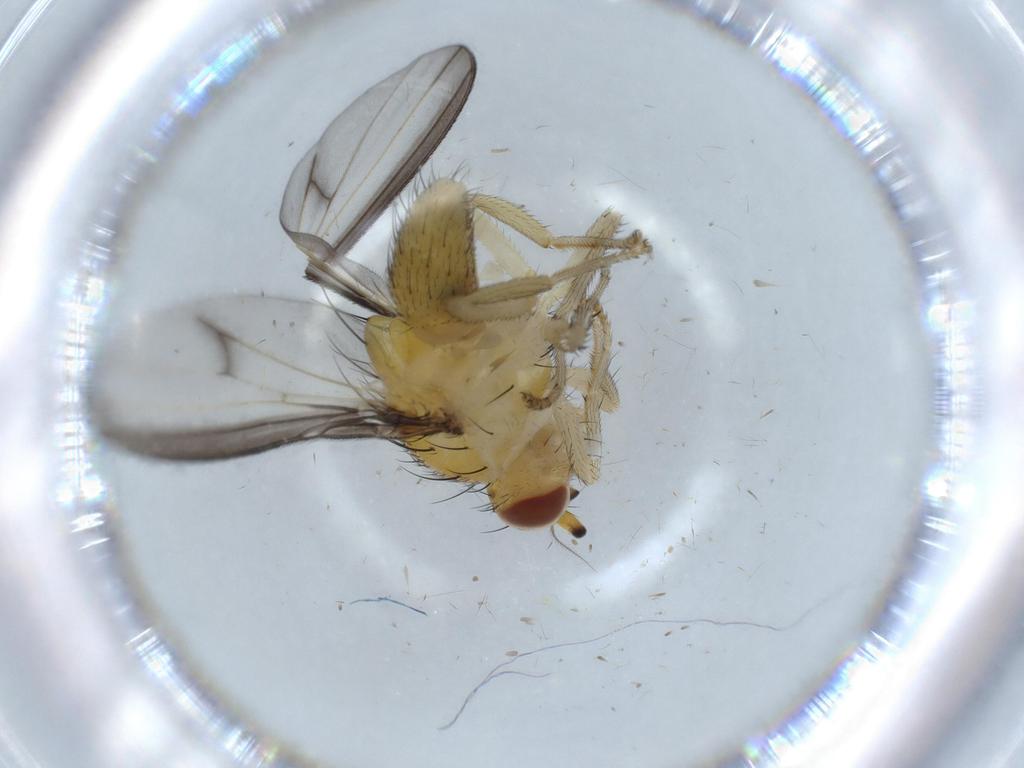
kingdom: Animalia
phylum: Arthropoda
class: Insecta
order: Diptera
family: Lauxaniidae
